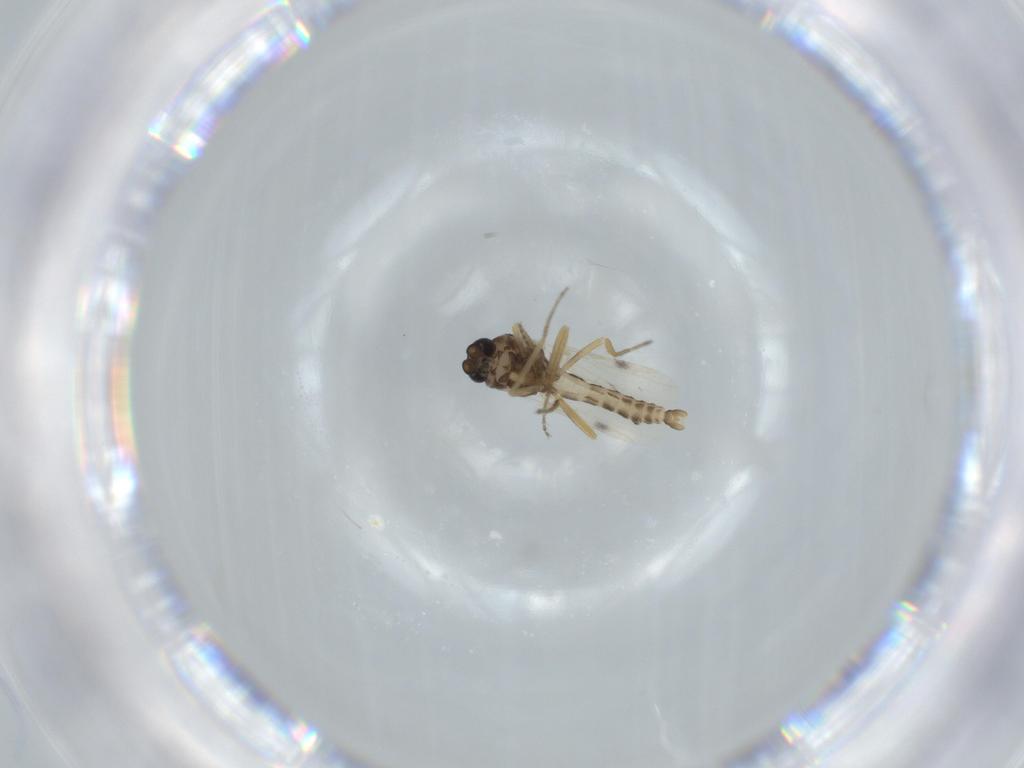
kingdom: Animalia
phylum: Arthropoda
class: Insecta
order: Diptera
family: Ceratopogonidae
